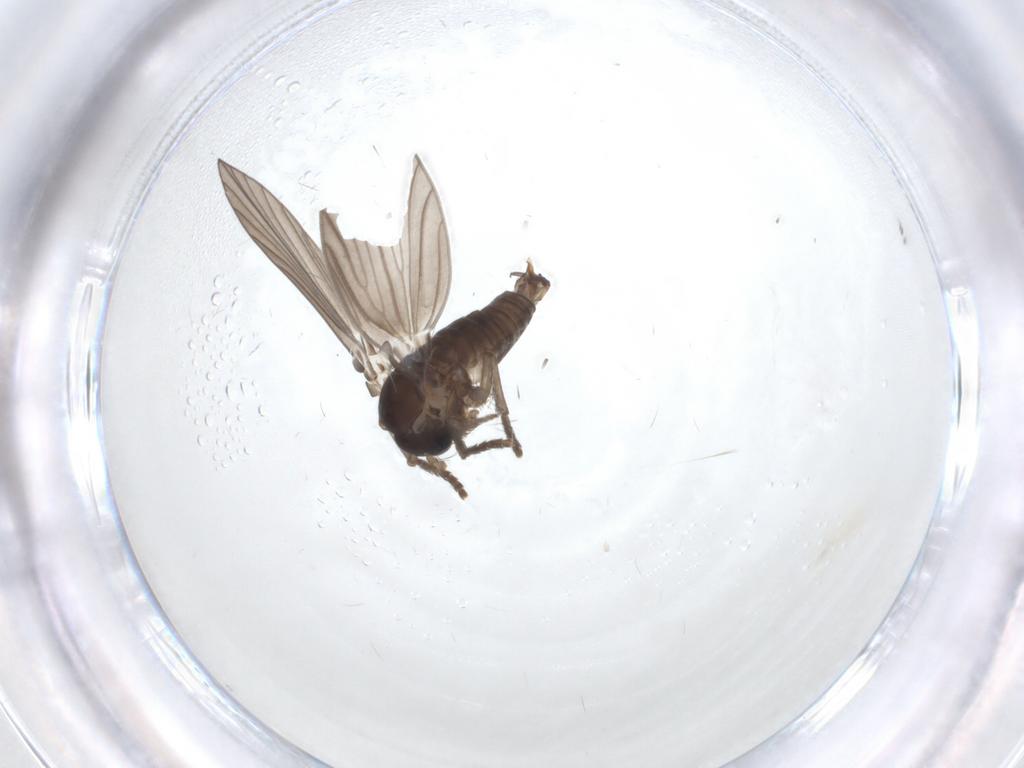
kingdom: Animalia
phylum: Arthropoda
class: Insecta
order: Diptera
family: Psychodidae
